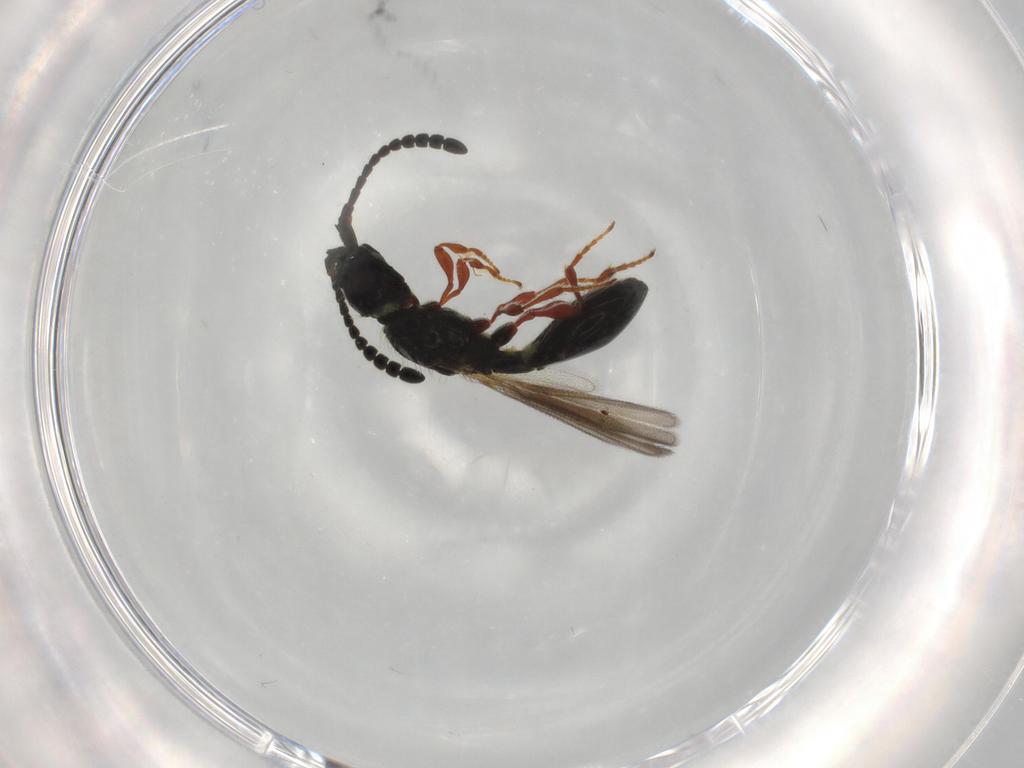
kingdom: Animalia
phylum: Arthropoda
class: Insecta
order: Hymenoptera
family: Diapriidae
